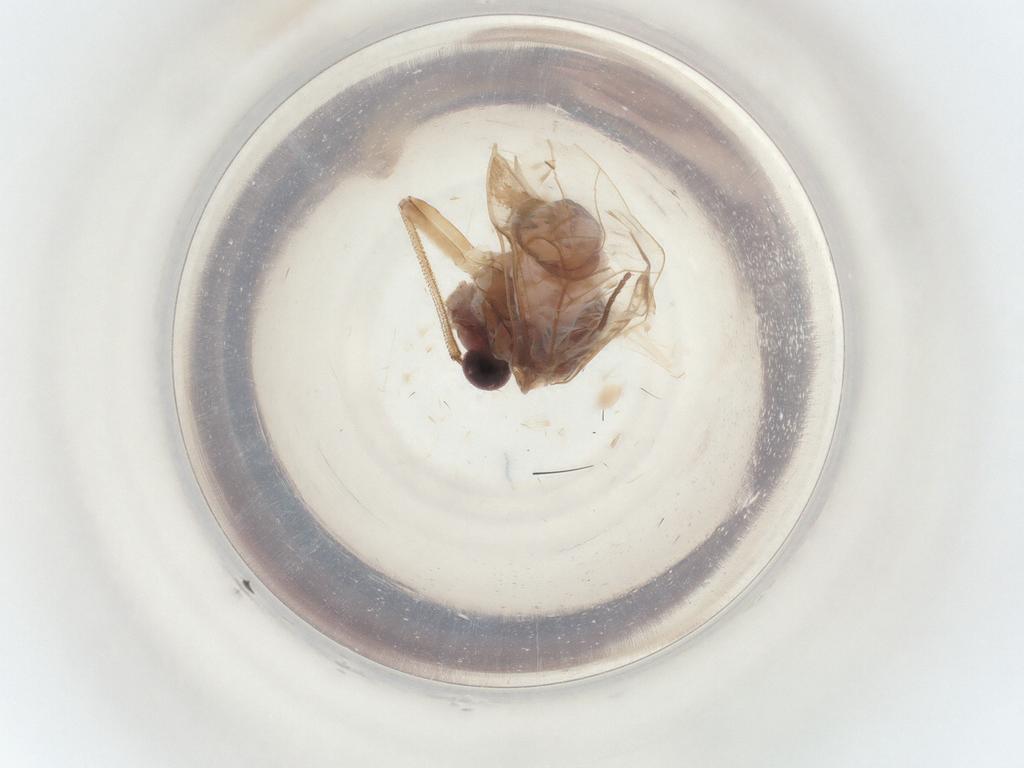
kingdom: Animalia
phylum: Arthropoda
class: Insecta
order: Diptera
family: Stratiomyidae
